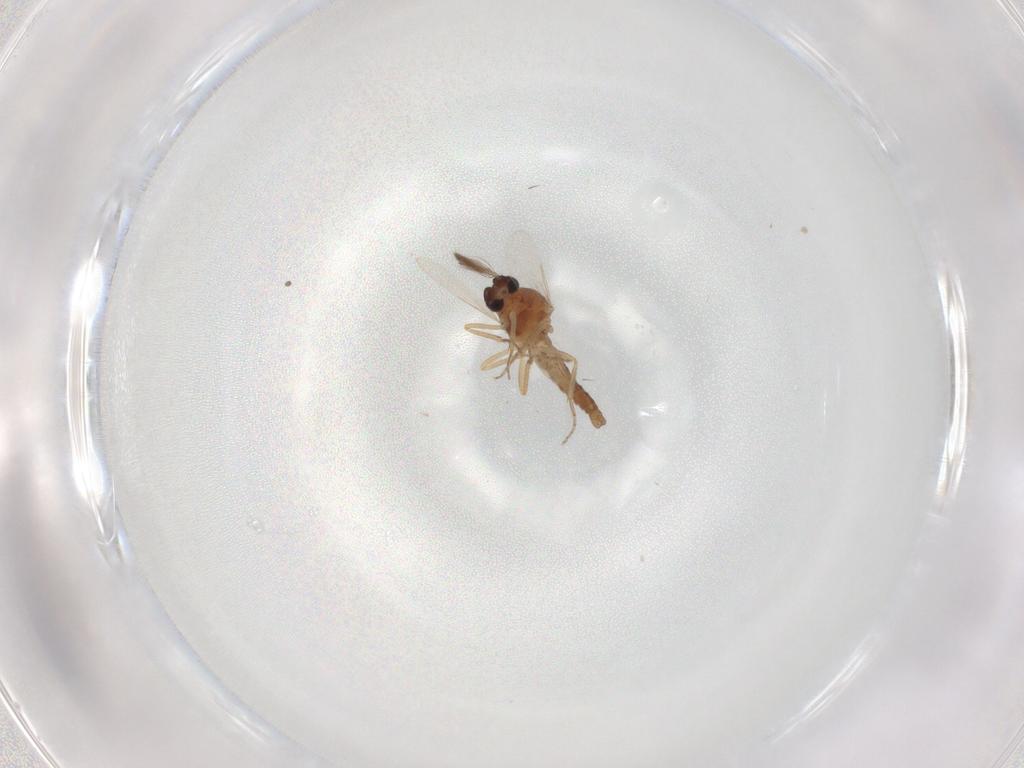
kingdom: Animalia
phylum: Arthropoda
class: Insecta
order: Diptera
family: Ceratopogonidae
